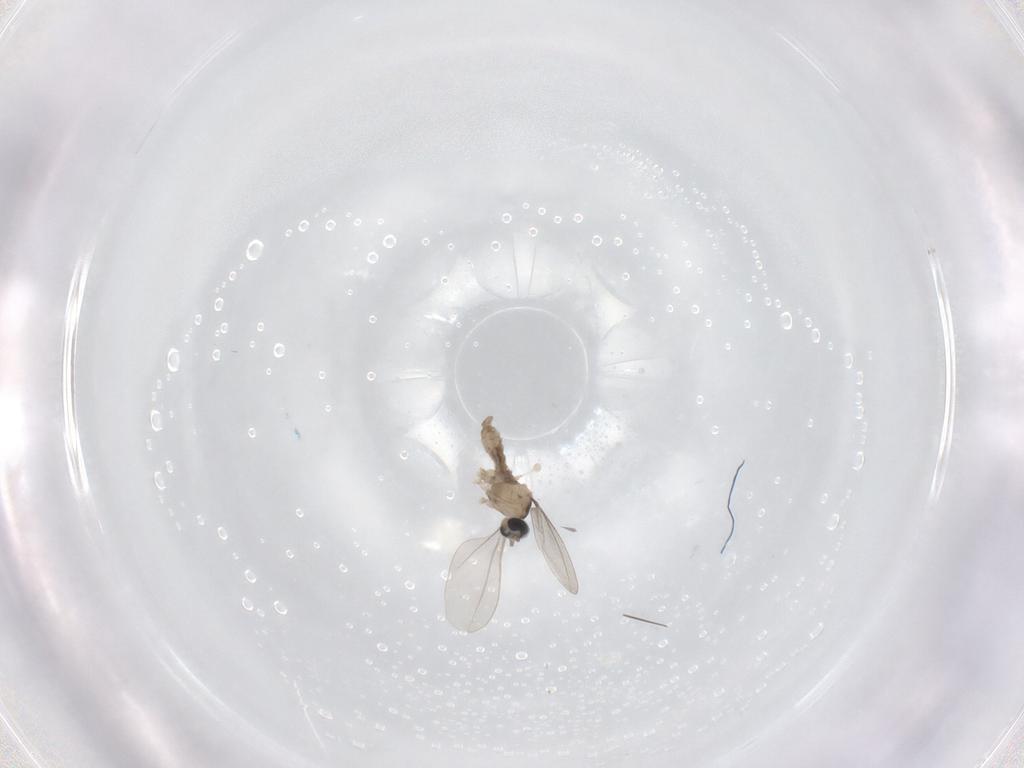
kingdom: Animalia
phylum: Arthropoda
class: Insecta
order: Diptera
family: Cecidomyiidae
